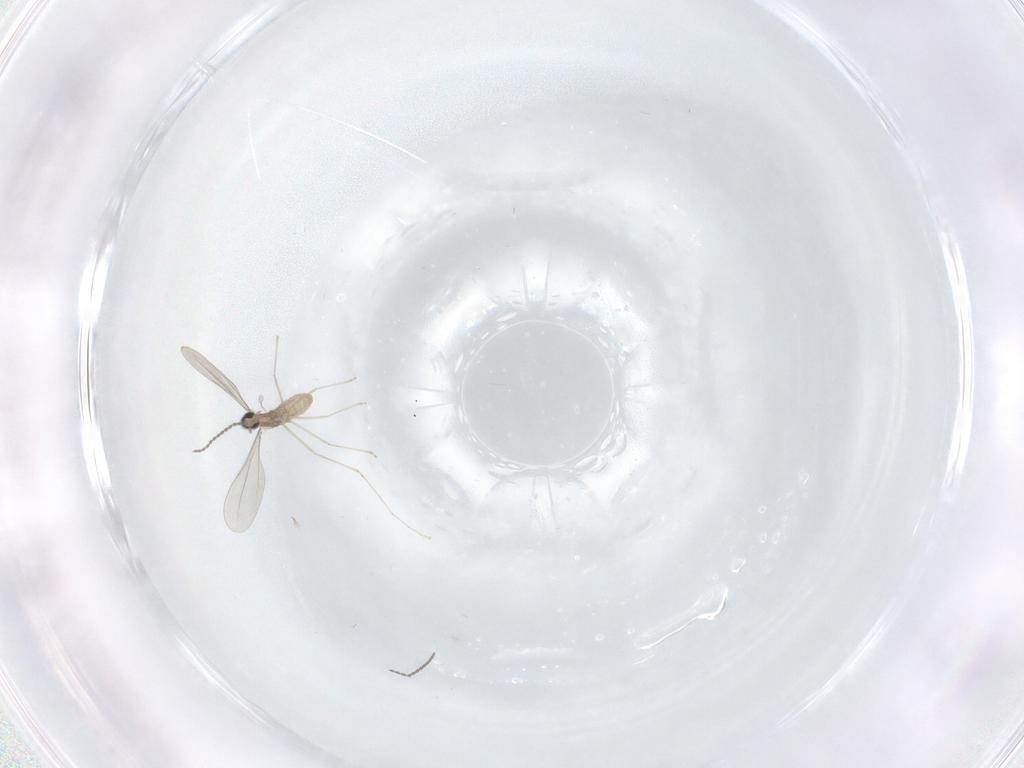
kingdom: Animalia
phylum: Arthropoda
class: Insecta
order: Diptera
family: Cecidomyiidae
